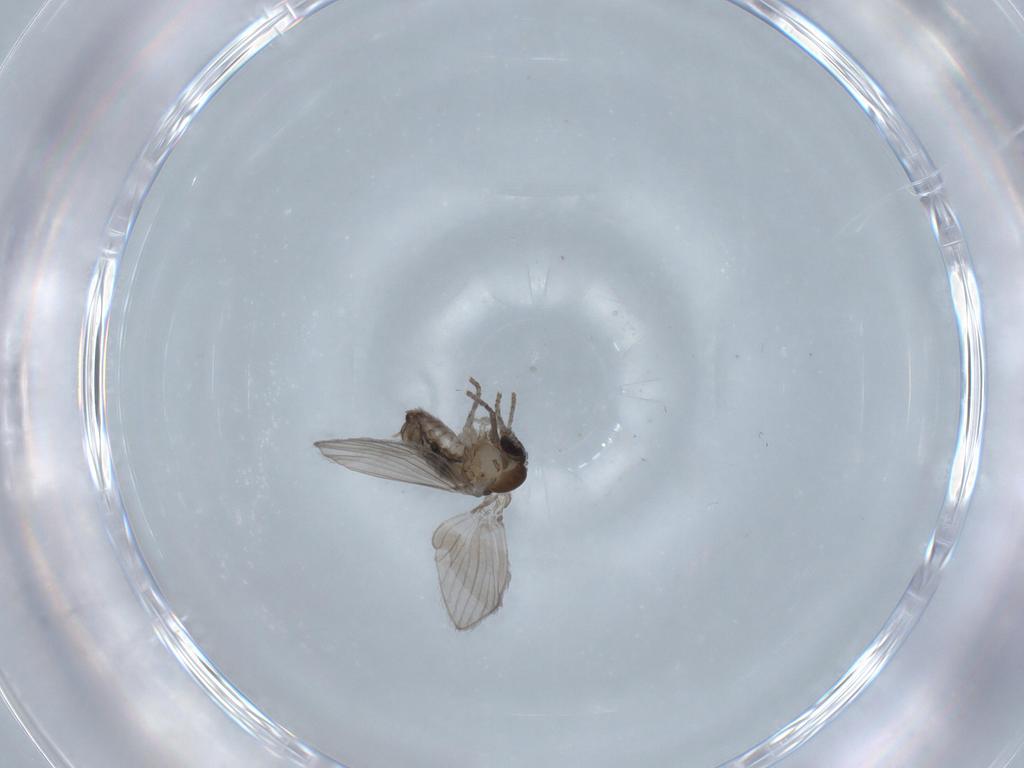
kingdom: Animalia
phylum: Arthropoda
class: Insecta
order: Diptera
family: Psychodidae
